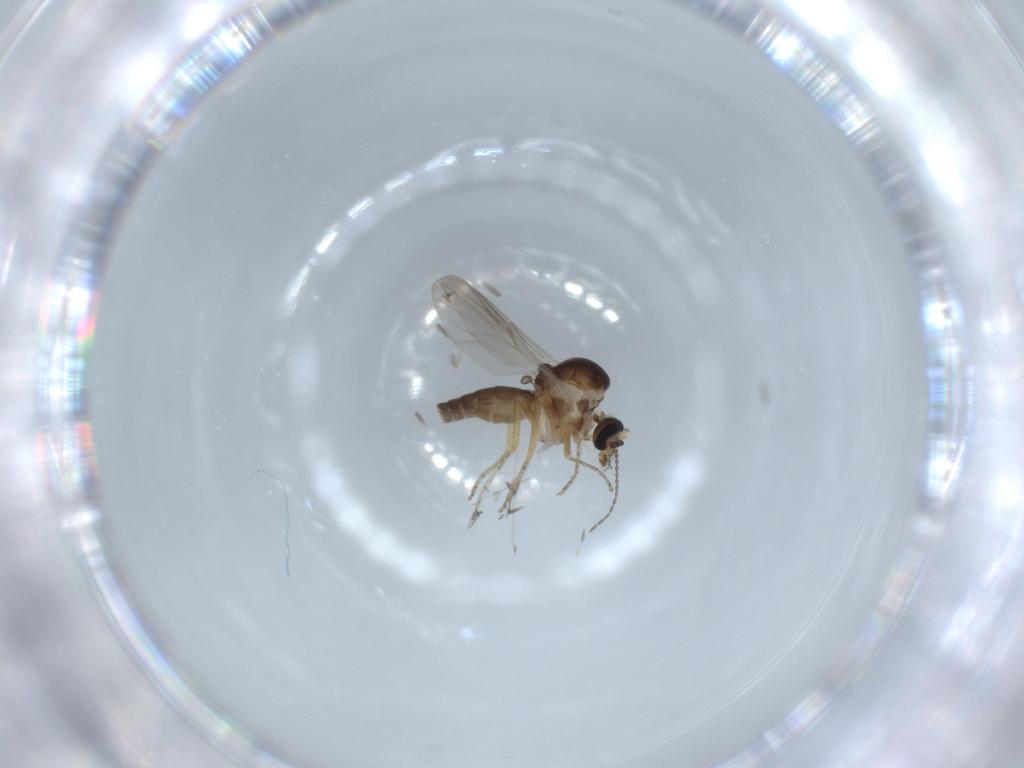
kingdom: Animalia
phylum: Arthropoda
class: Insecta
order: Diptera
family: Ceratopogonidae
